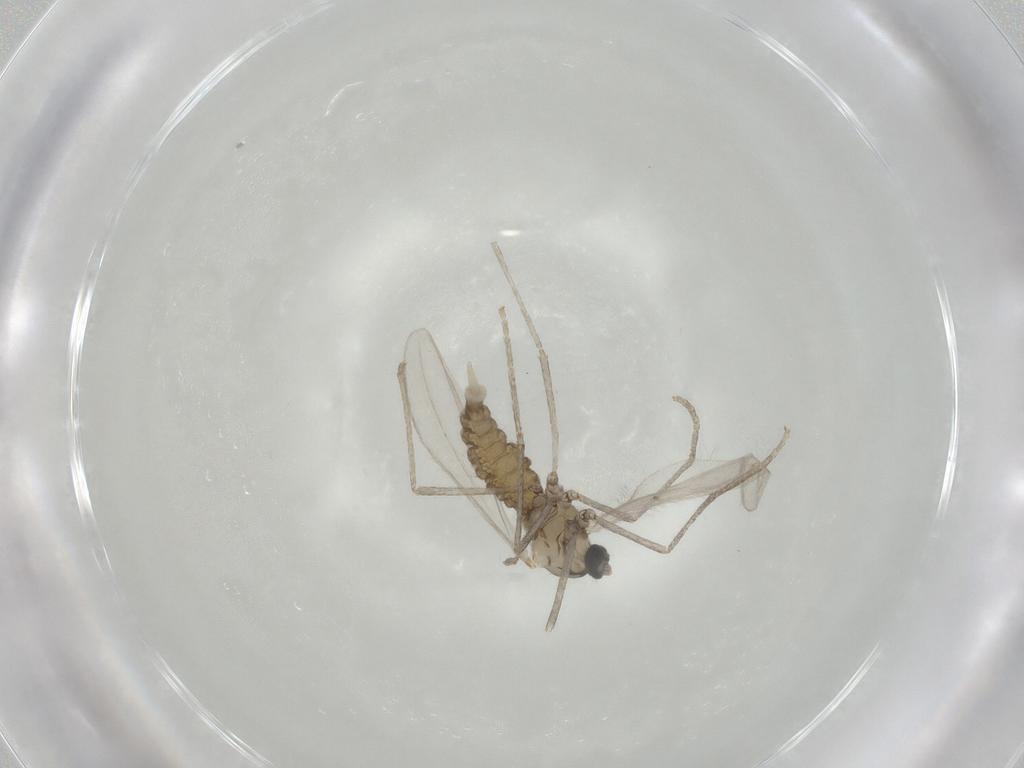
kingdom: Animalia
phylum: Arthropoda
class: Insecta
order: Diptera
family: Cecidomyiidae
